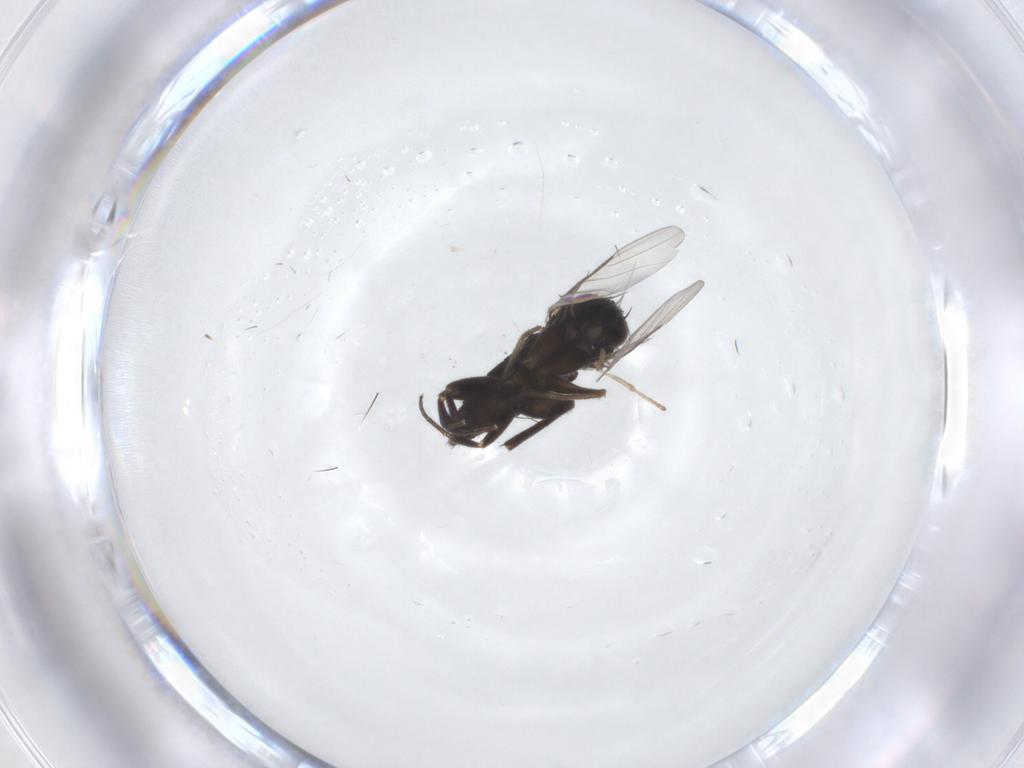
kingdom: Animalia
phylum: Arthropoda
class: Insecta
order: Diptera
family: Phoridae
